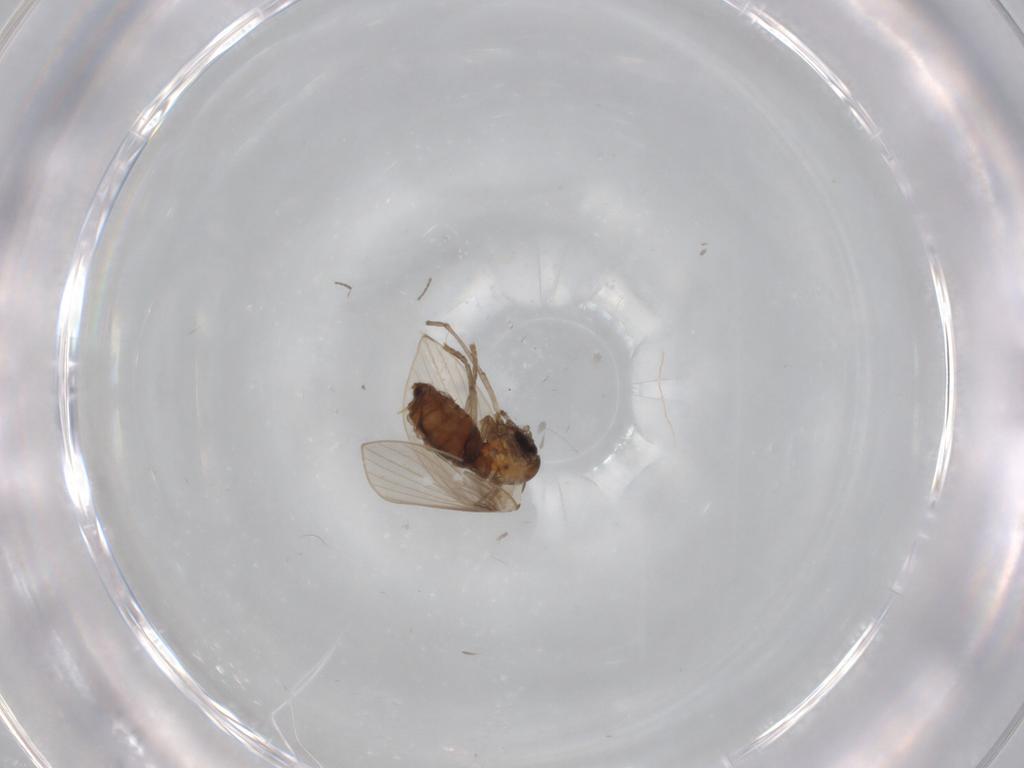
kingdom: Animalia
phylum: Arthropoda
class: Insecta
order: Diptera
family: Psychodidae
